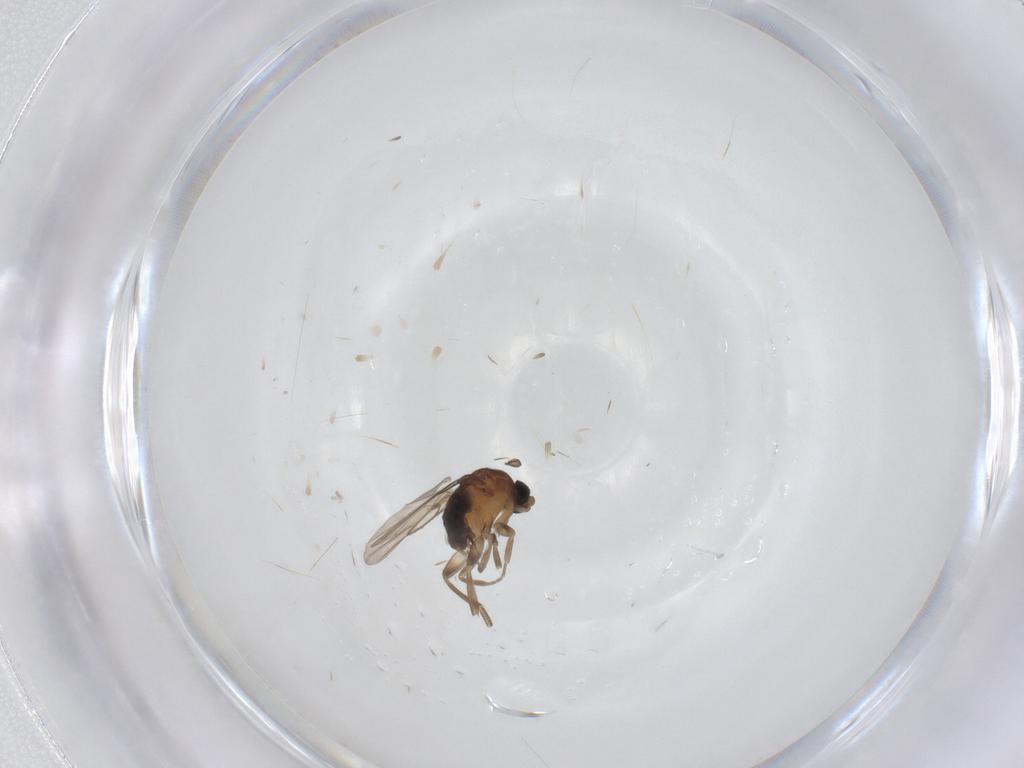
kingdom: Animalia
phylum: Arthropoda
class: Insecta
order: Diptera
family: Phoridae
